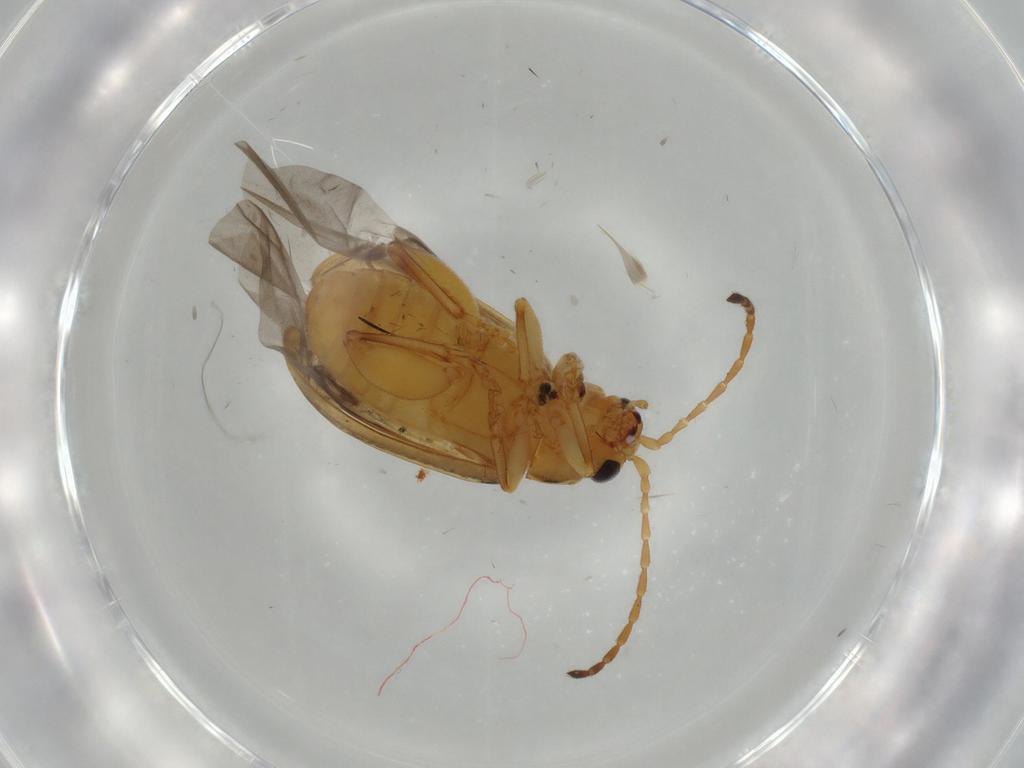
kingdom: Animalia
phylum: Arthropoda
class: Insecta
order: Coleoptera
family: Chrysomelidae
